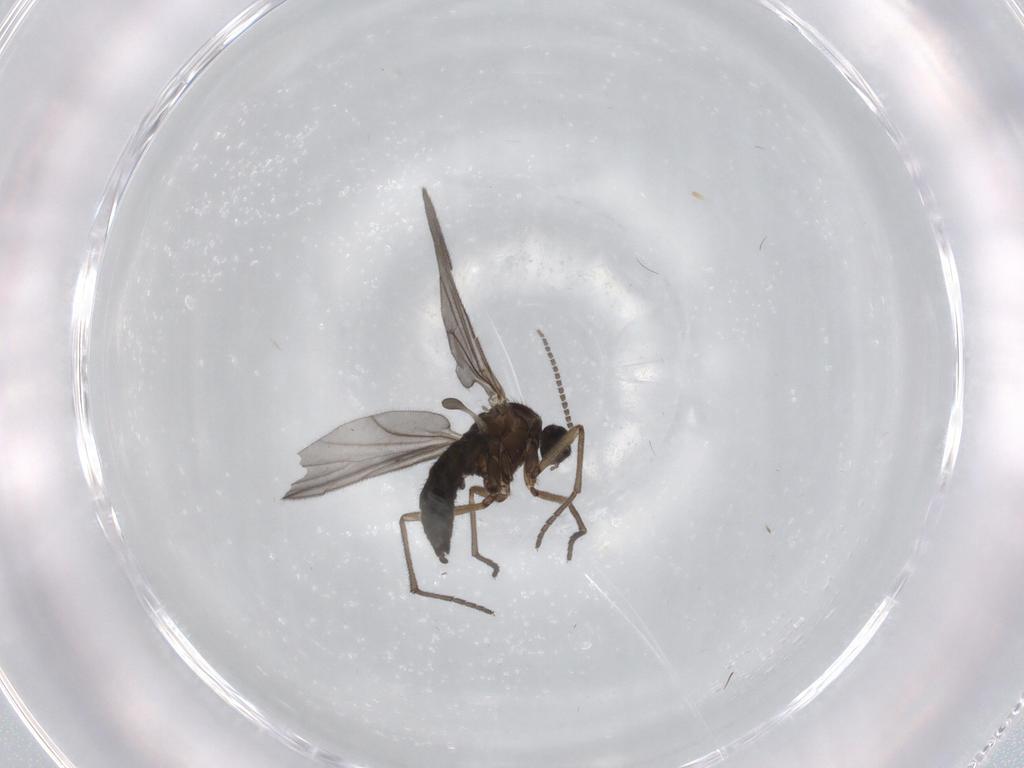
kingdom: Animalia
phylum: Arthropoda
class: Insecta
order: Diptera
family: Sciaridae
